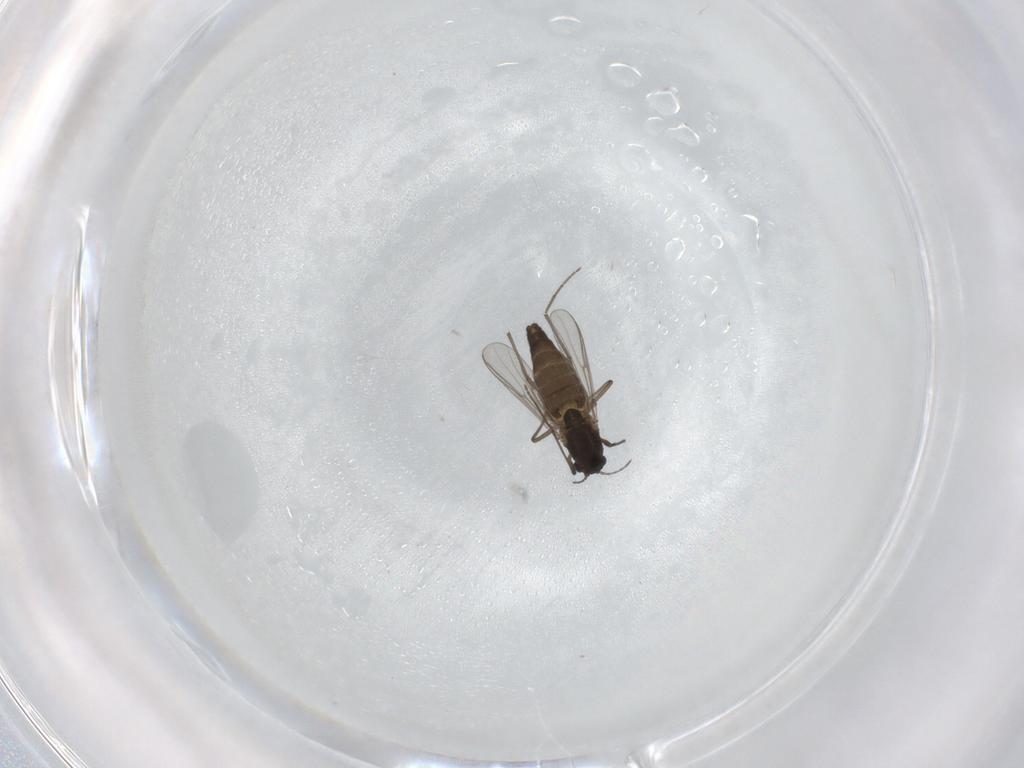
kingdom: Animalia
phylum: Arthropoda
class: Insecta
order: Diptera
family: Chironomidae
